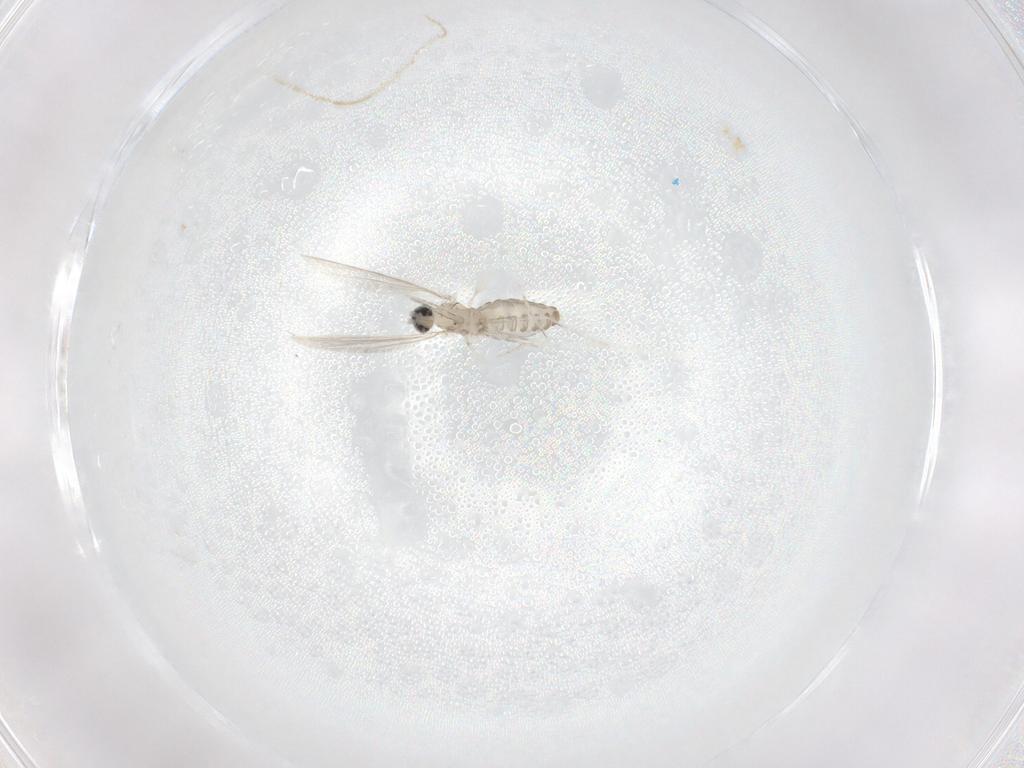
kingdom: Animalia
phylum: Arthropoda
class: Insecta
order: Diptera
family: Cecidomyiidae
